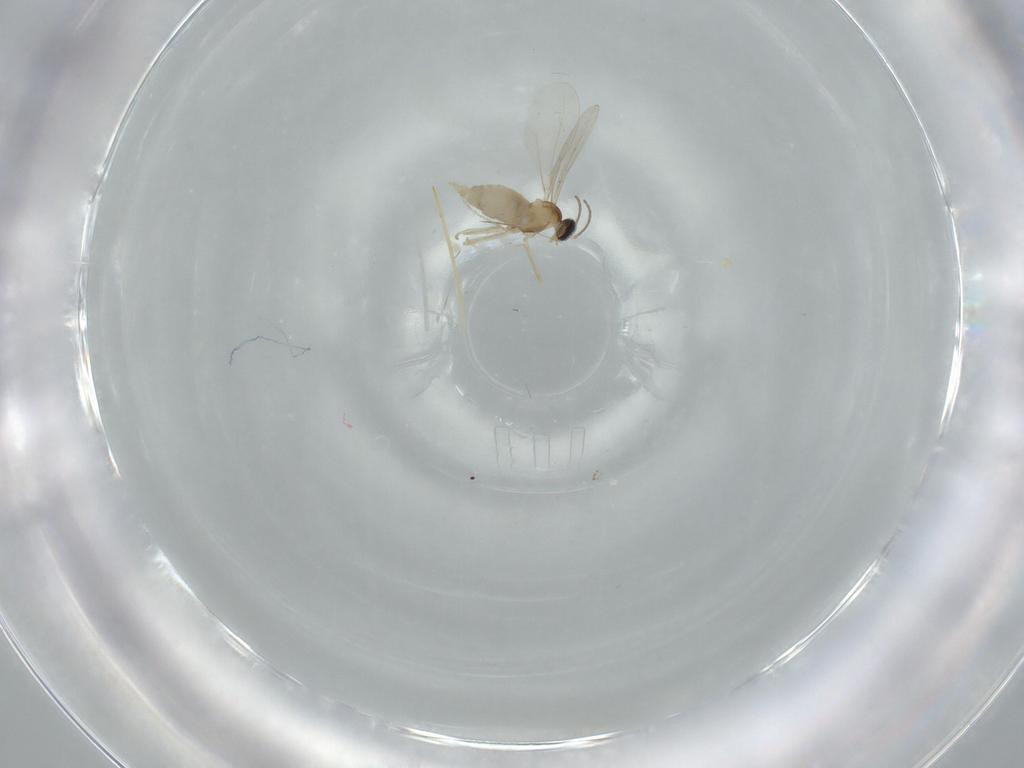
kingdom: Animalia
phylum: Arthropoda
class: Insecta
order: Diptera
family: Cecidomyiidae
